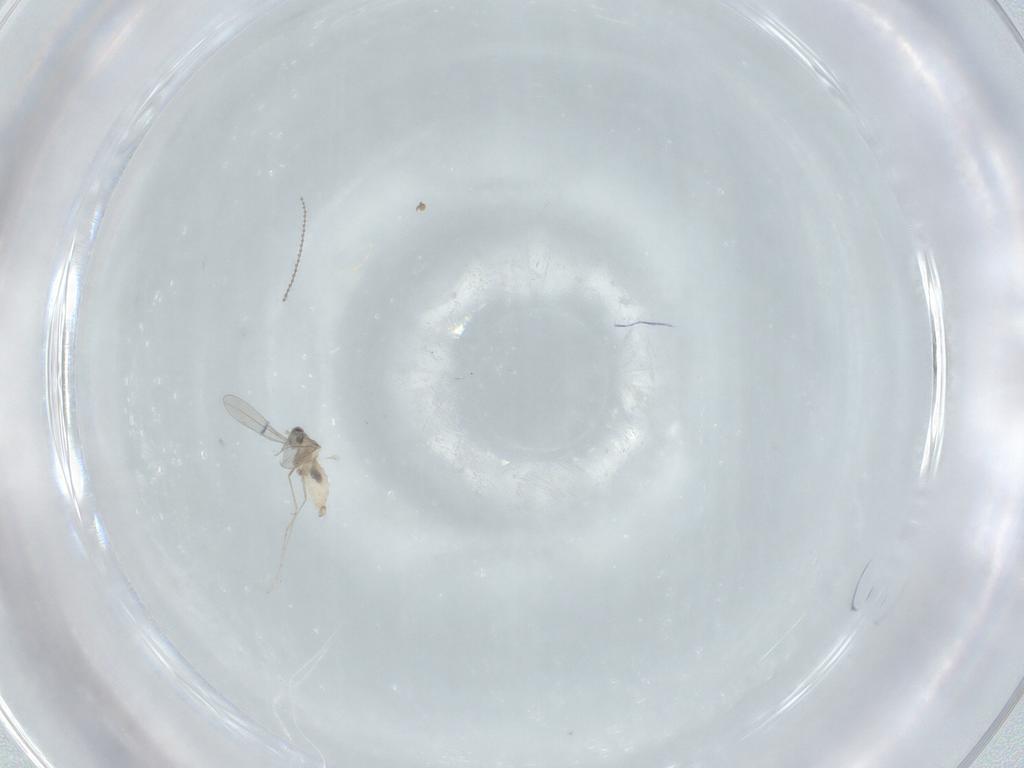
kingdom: Animalia
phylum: Arthropoda
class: Insecta
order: Diptera
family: Cecidomyiidae
